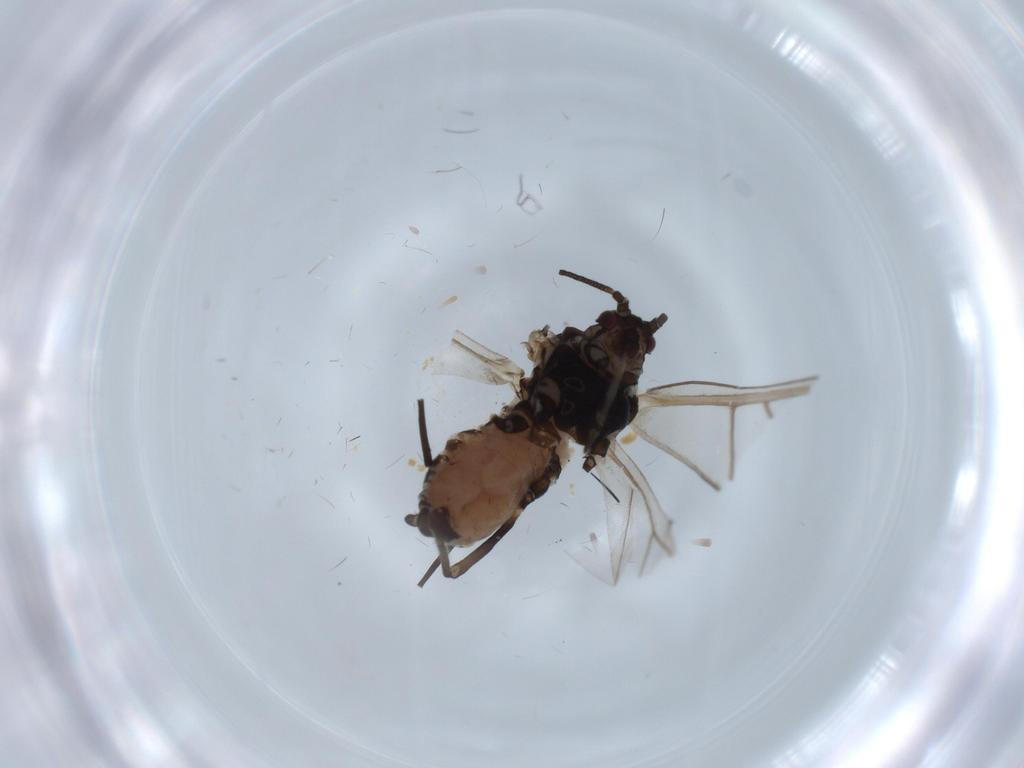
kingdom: Animalia
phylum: Arthropoda
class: Insecta
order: Hemiptera
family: Aphididae
